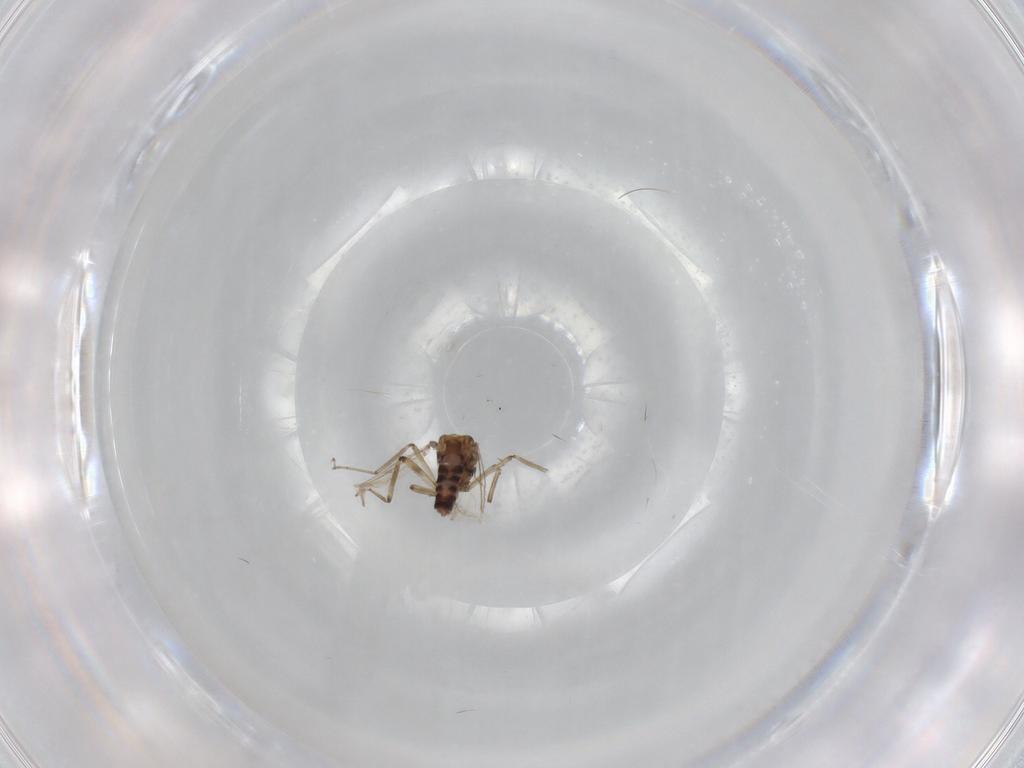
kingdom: Animalia
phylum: Arthropoda
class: Insecta
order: Diptera
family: Ceratopogonidae
